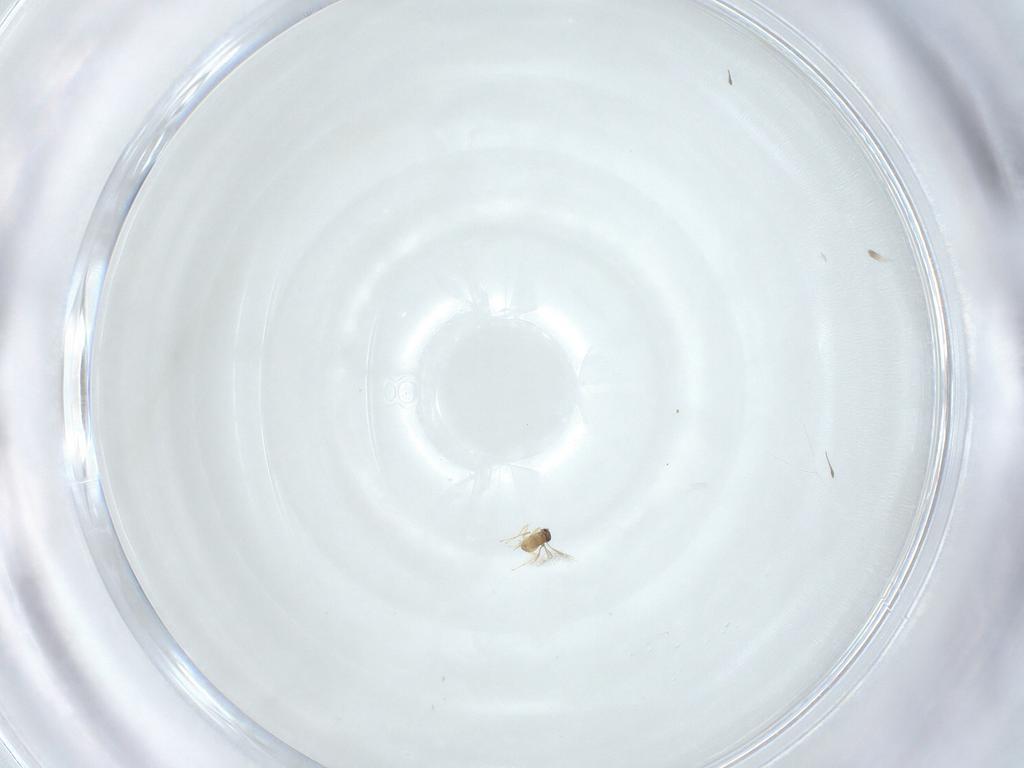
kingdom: Animalia
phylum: Arthropoda
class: Insecta
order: Hymenoptera
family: Mymaridae
